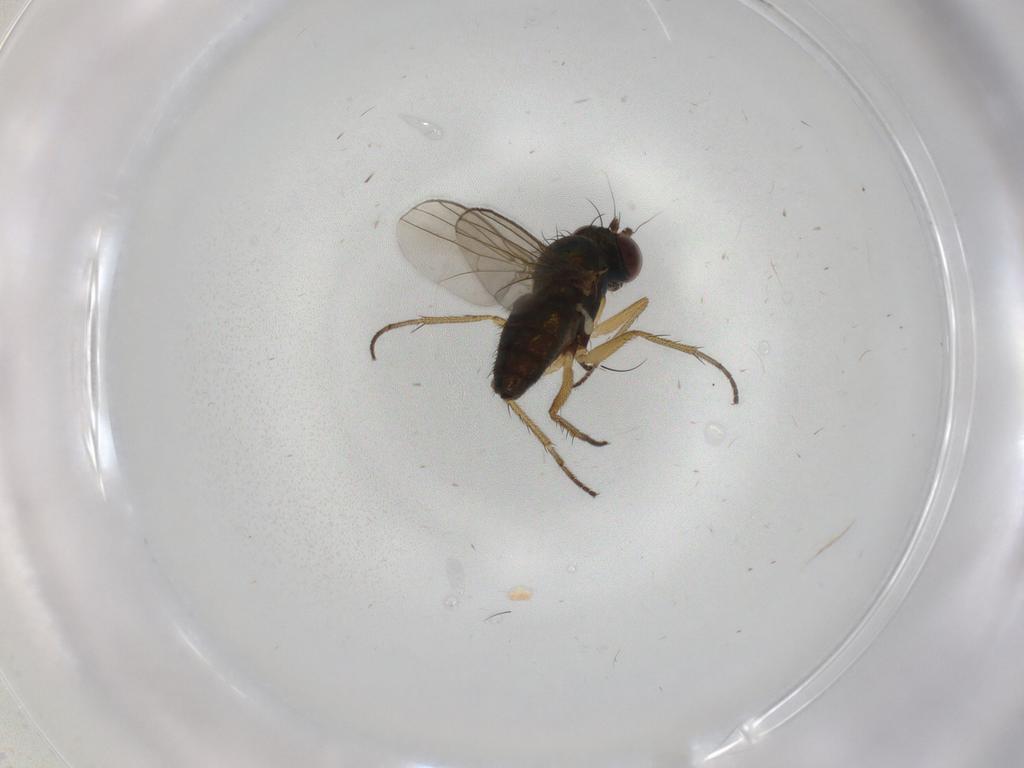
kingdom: Animalia
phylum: Arthropoda
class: Insecta
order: Diptera
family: Dolichopodidae
